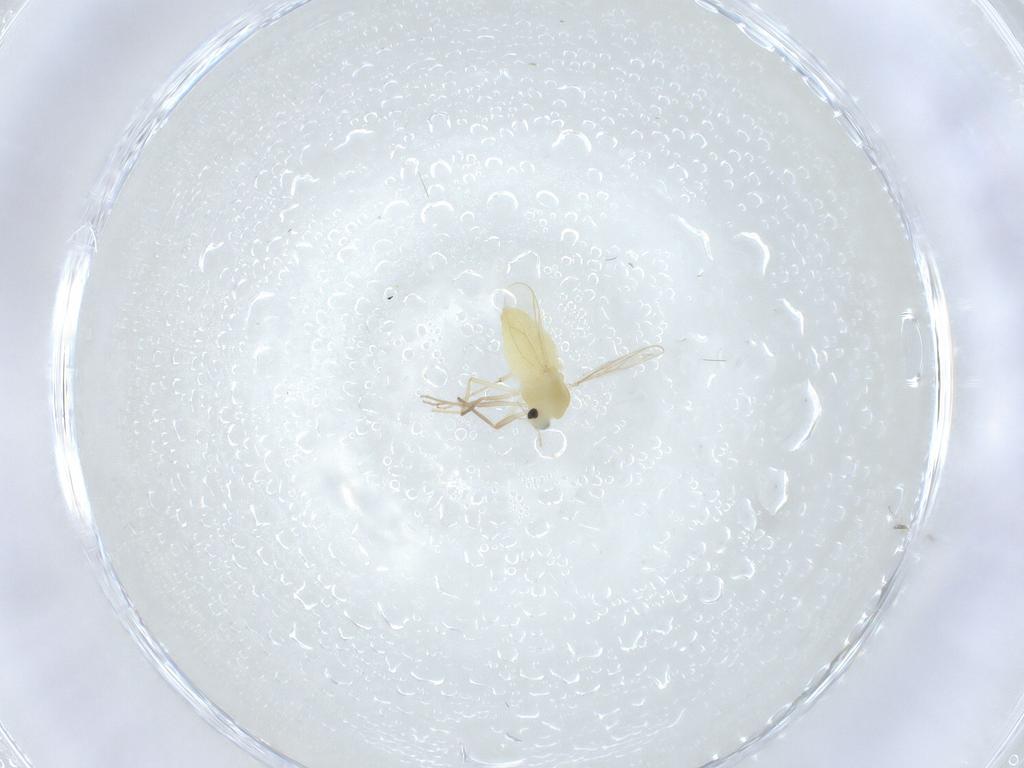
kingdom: Animalia
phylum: Arthropoda
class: Insecta
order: Diptera
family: Chironomidae
